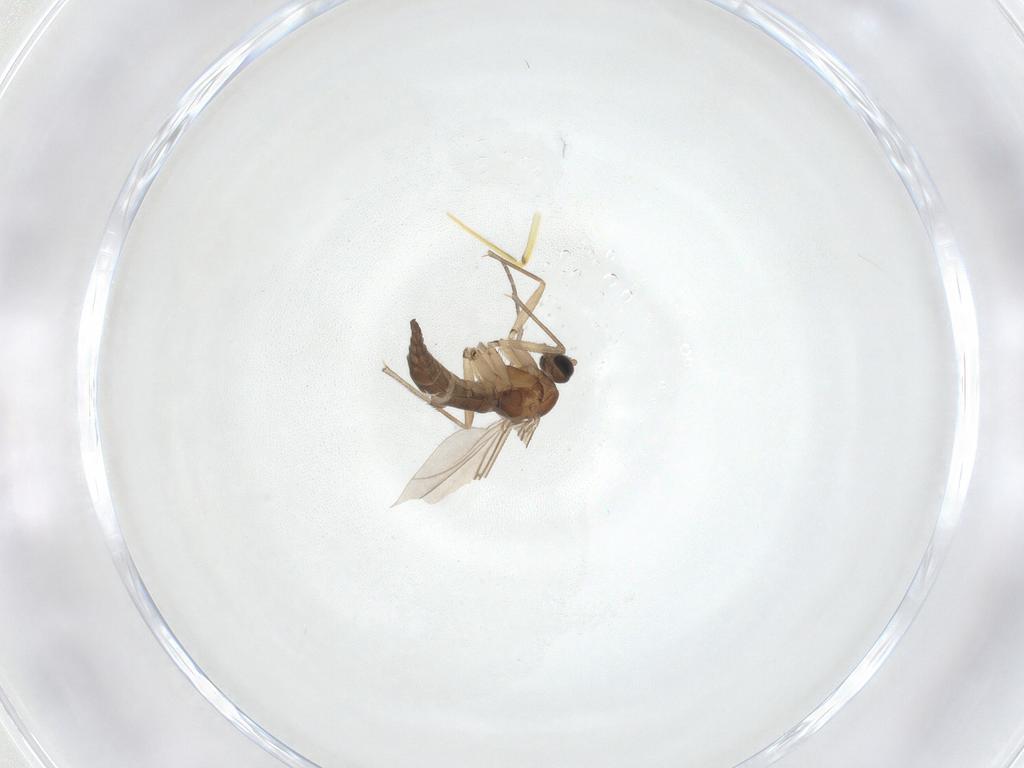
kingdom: Animalia
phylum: Arthropoda
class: Insecta
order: Diptera
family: Sciaridae
